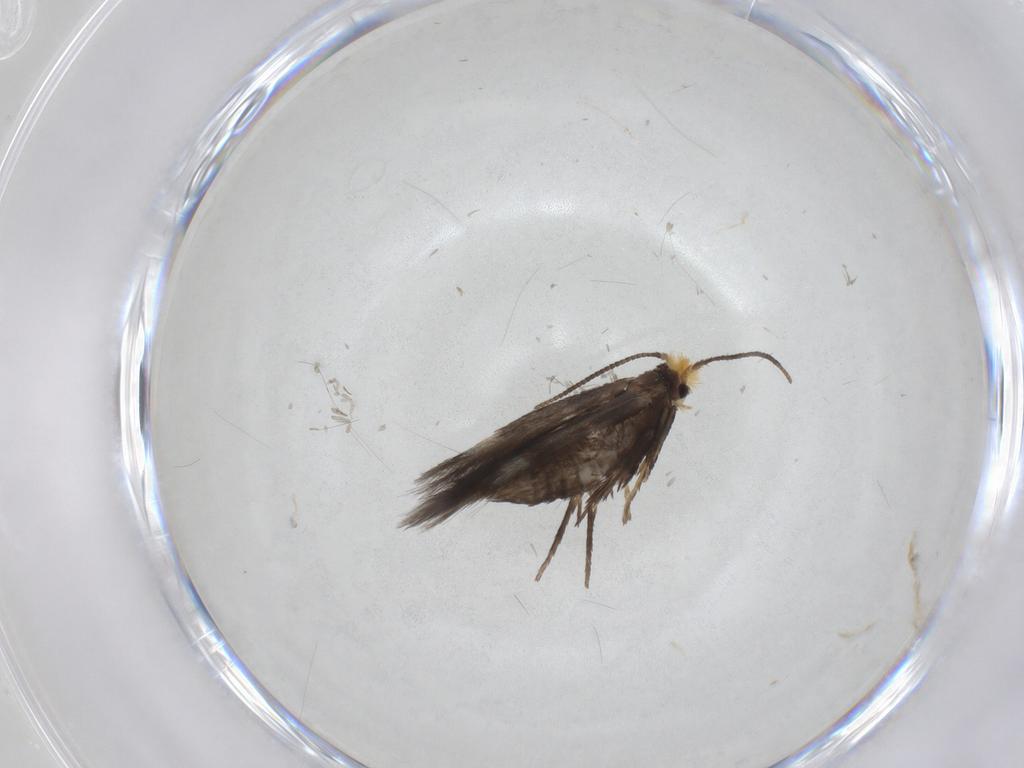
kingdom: Animalia
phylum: Arthropoda
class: Insecta
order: Lepidoptera
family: Nepticulidae
